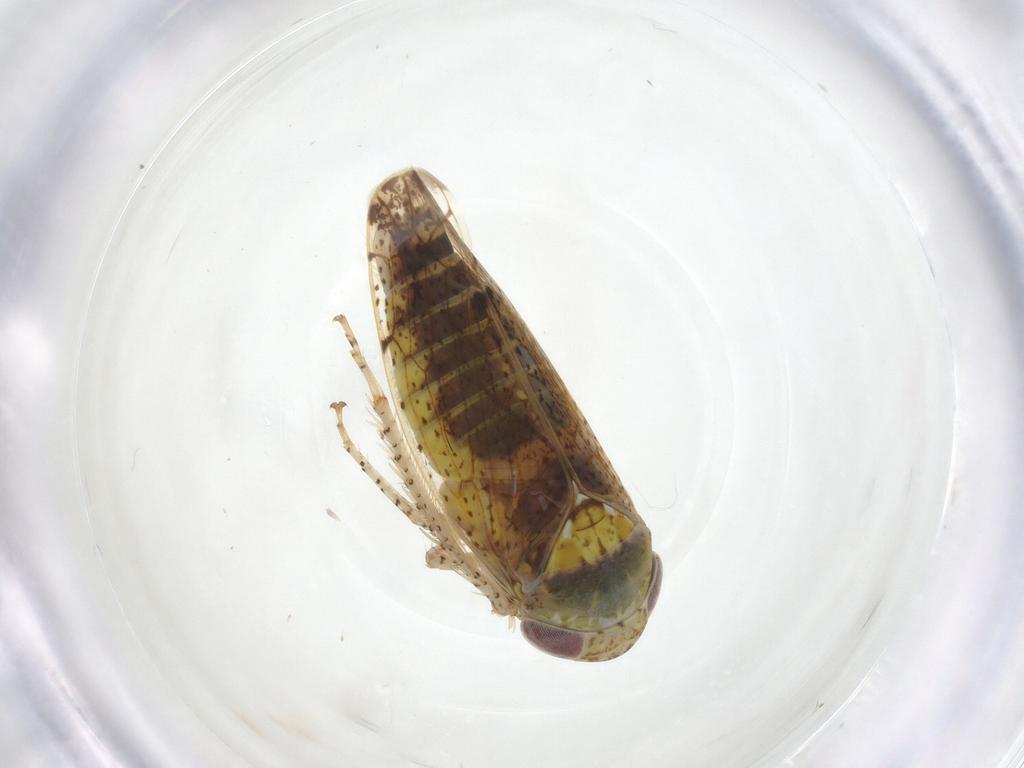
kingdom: Animalia
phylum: Arthropoda
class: Insecta
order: Hemiptera
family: Cicadellidae
